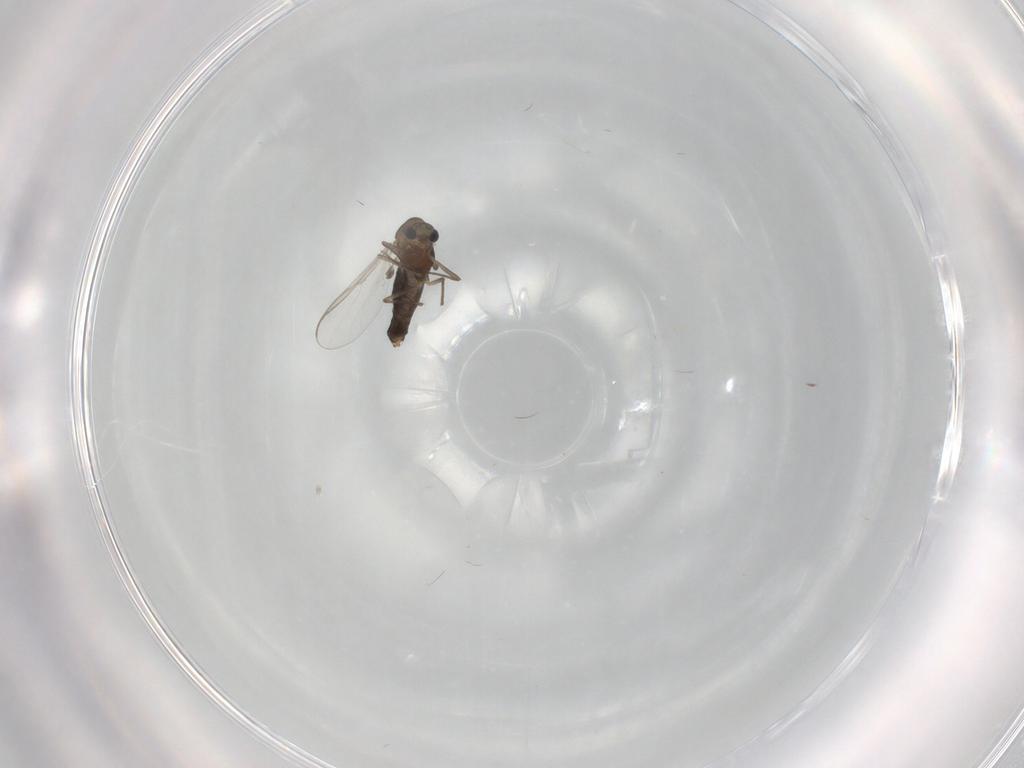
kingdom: Animalia
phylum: Arthropoda
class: Insecta
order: Diptera
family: Chironomidae
